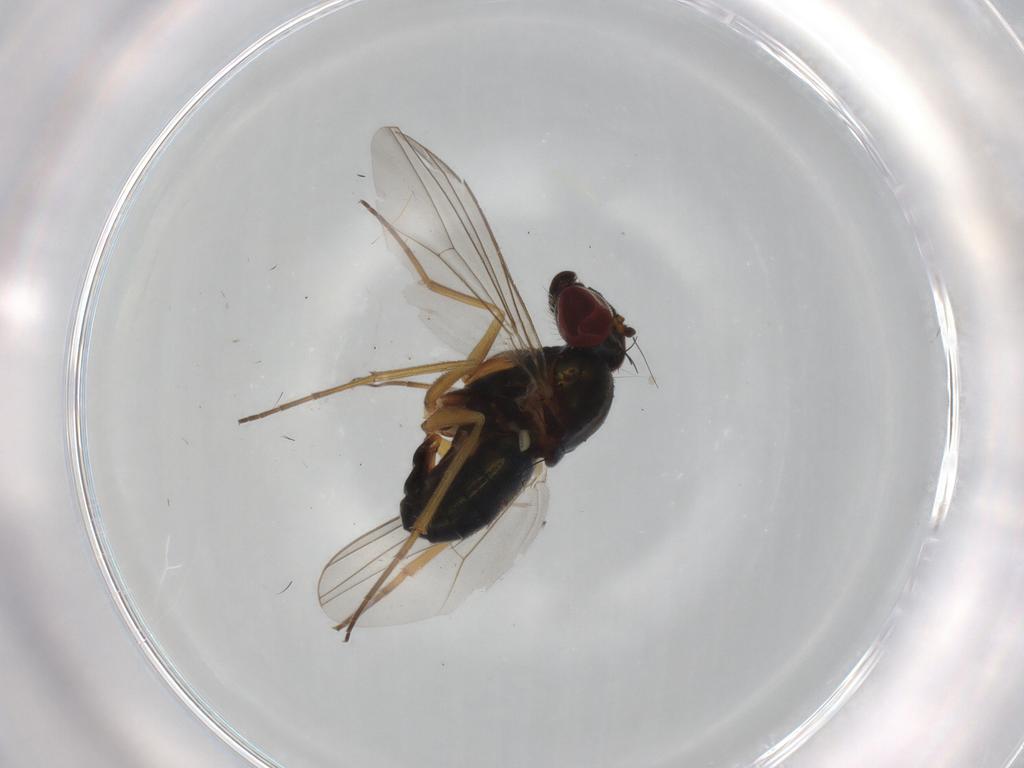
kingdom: Animalia
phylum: Arthropoda
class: Insecta
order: Diptera
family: Dolichopodidae
